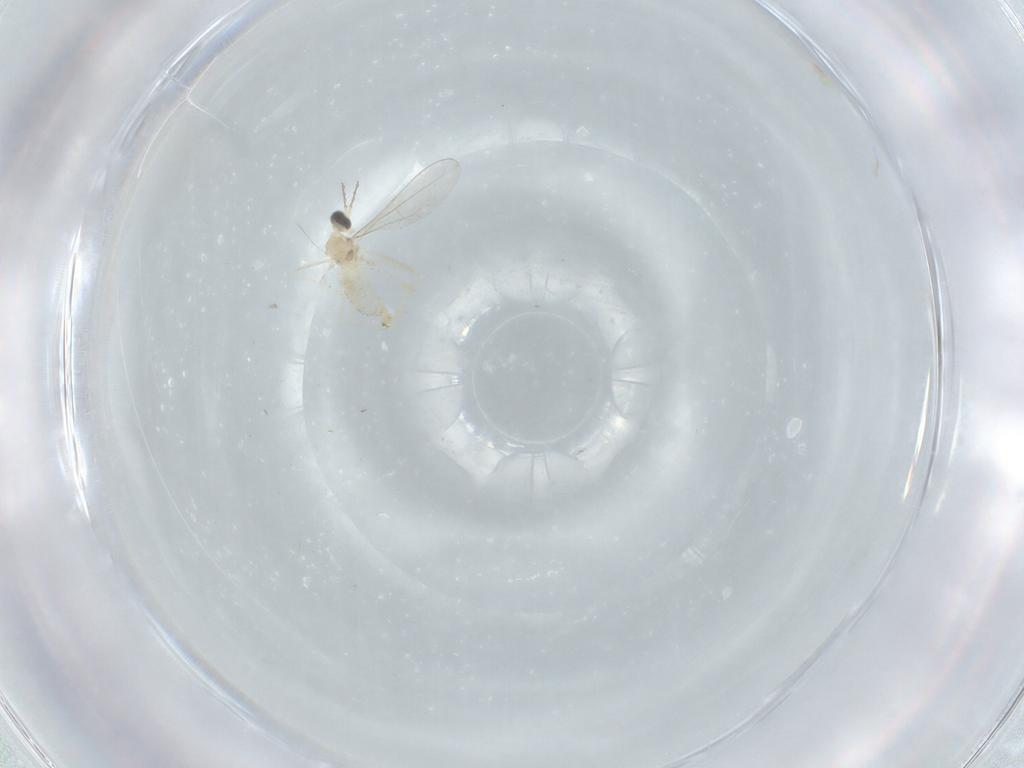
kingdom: Animalia
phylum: Arthropoda
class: Insecta
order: Diptera
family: Cecidomyiidae
